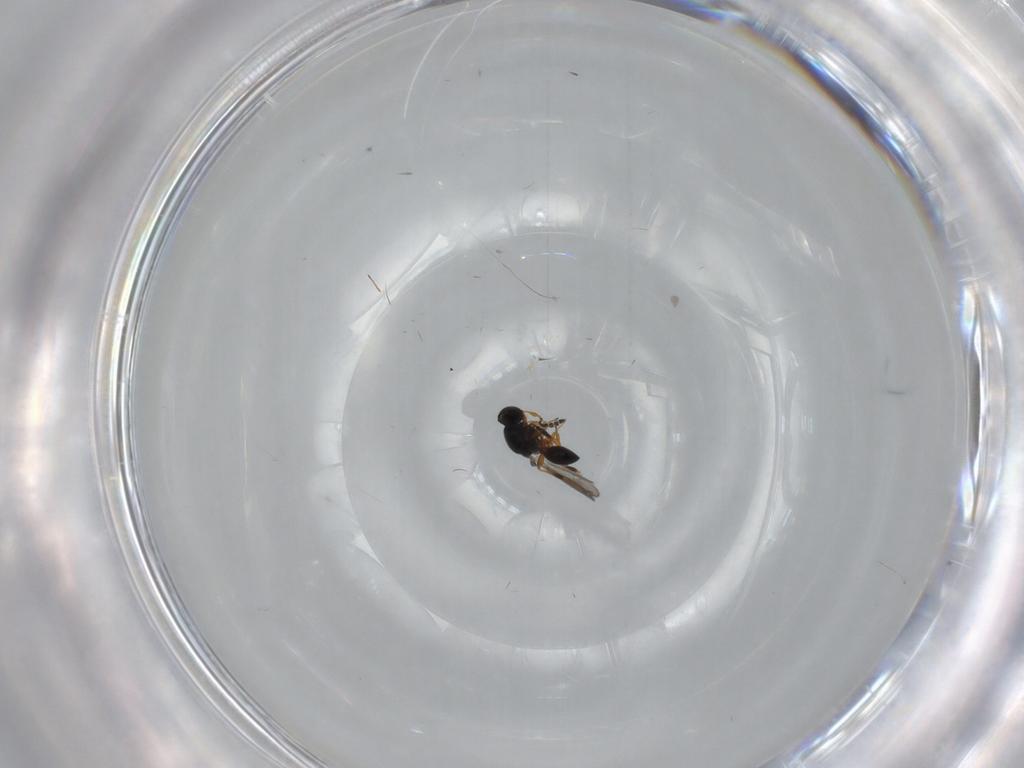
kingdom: Animalia
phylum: Arthropoda
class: Insecta
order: Hymenoptera
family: Platygastridae
